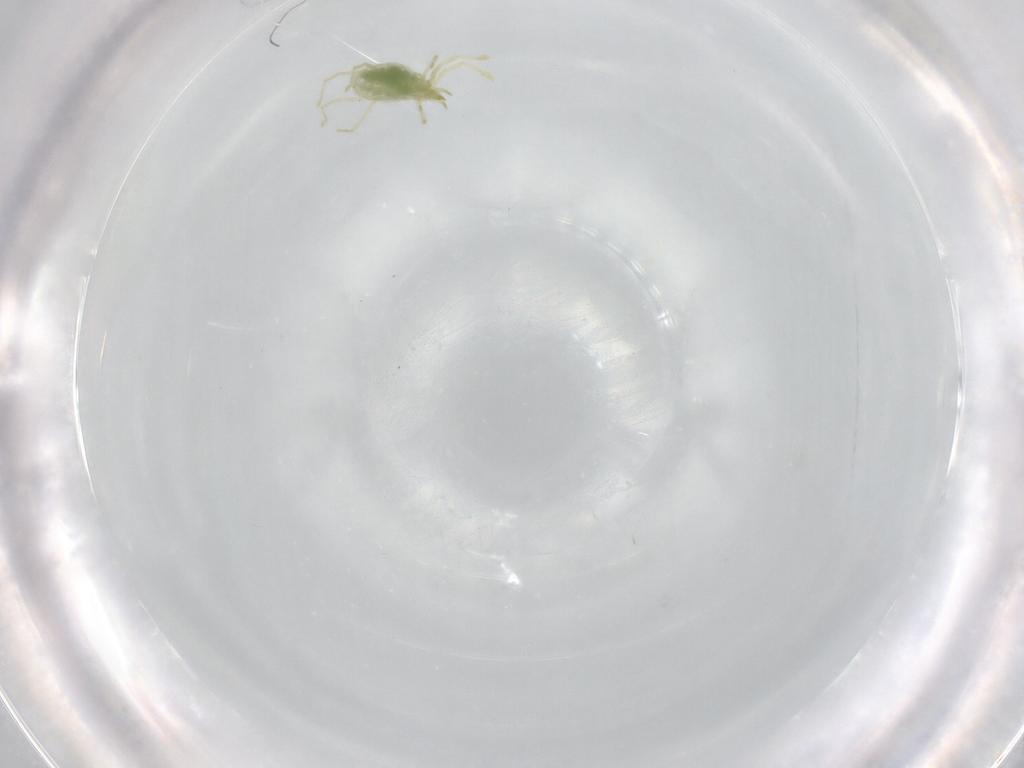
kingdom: Animalia
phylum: Arthropoda
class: Arachnida
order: Trombidiformes
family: Erythraeidae
